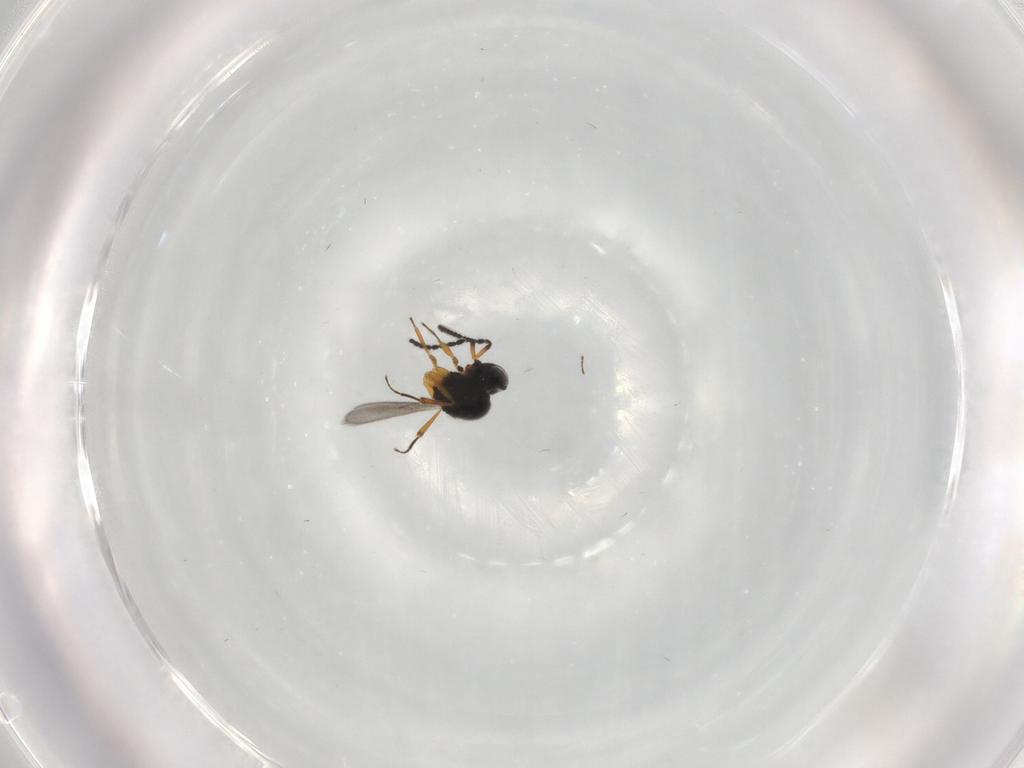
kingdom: Animalia
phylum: Arthropoda
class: Insecta
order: Hymenoptera
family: Scelionidae
